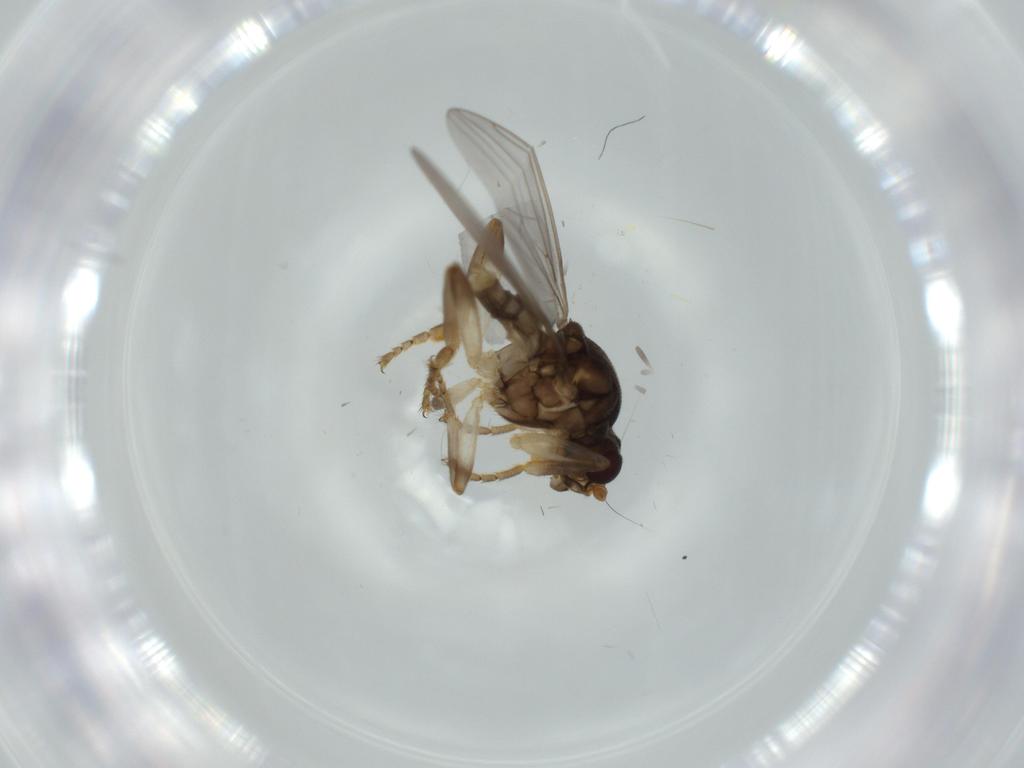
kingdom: Animalia
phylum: Arthropoda
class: Insecta
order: Diptera
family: Sphaeroceridae
